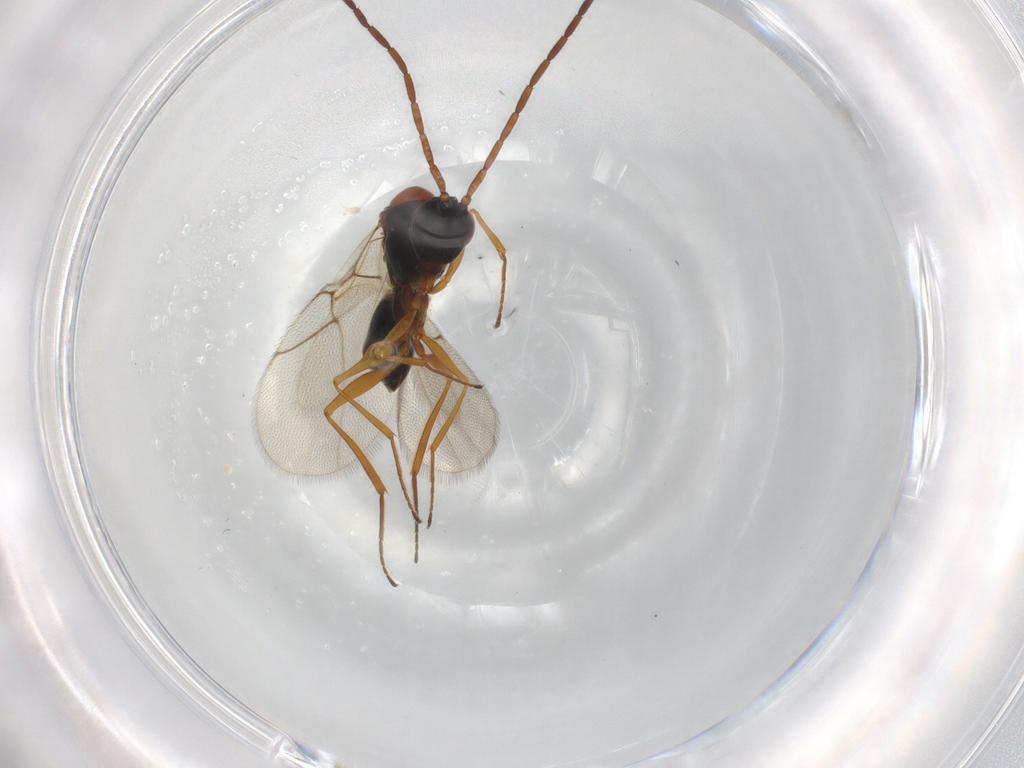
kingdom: Animalia
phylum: Arthropoda
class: Insecta
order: Hymenoptera
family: Figitidae
